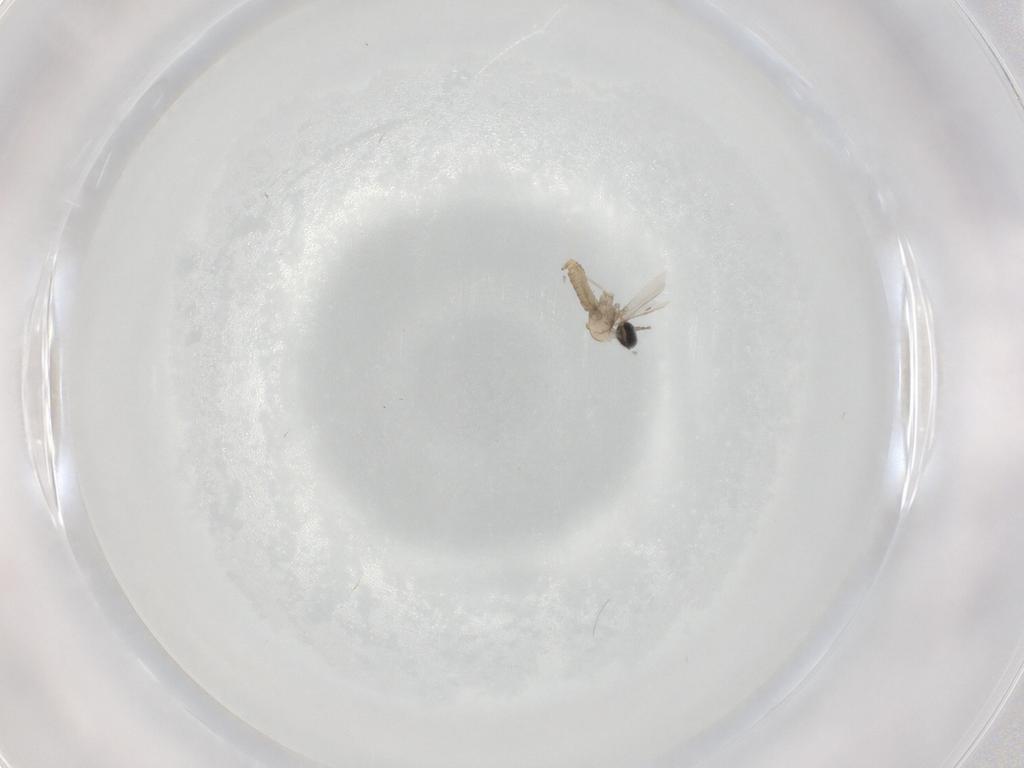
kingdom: Animalia
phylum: Arthropoda
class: Insecta
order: Diptera
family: Cecidomyiidae
